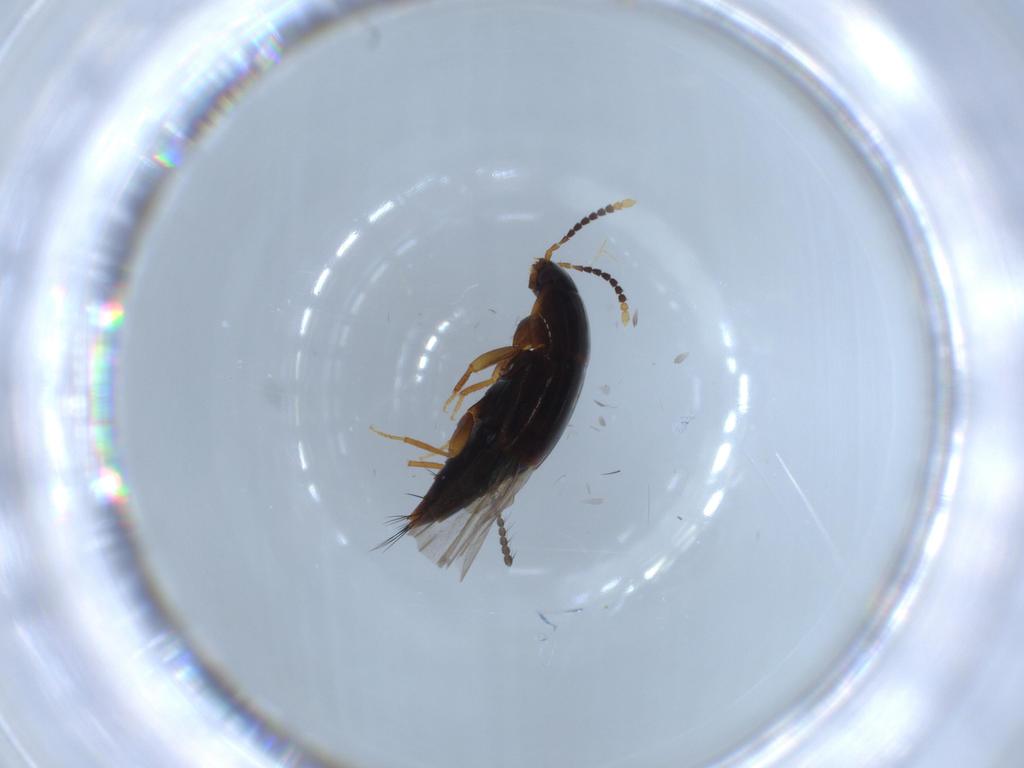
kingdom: Animalia
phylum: Arthropoda
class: Insecta
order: Coleoptera
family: Staphylinidae
